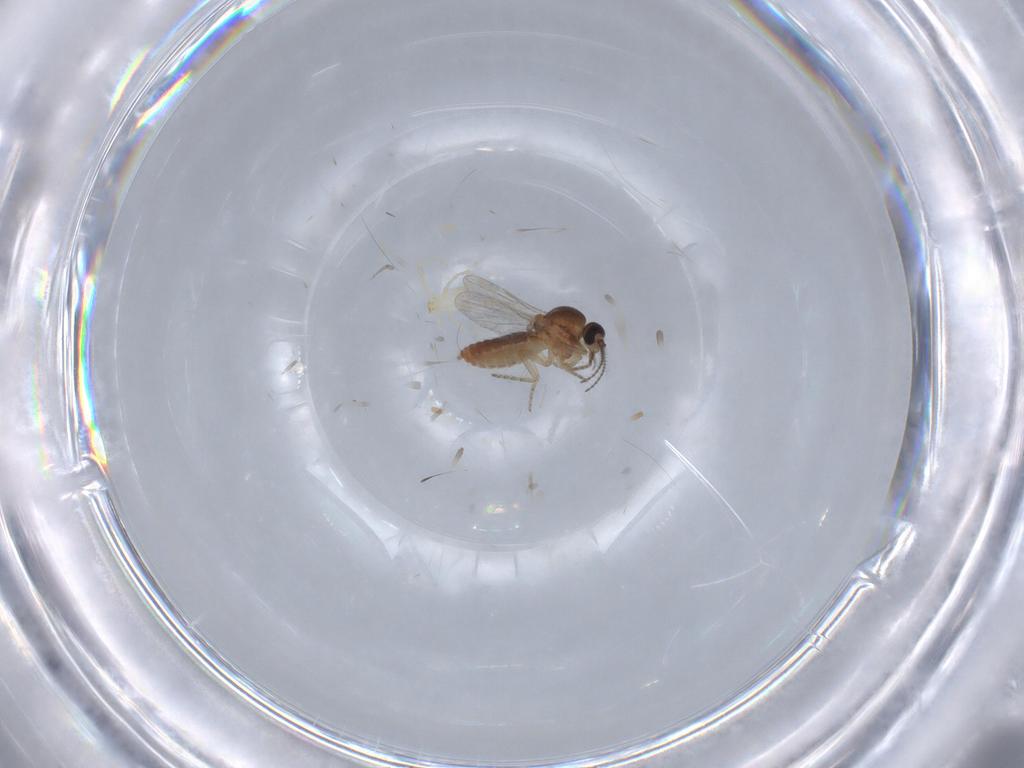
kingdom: Animalia
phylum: Arthropoda
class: Insecta
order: Diptera
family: Ceratopogonidae
